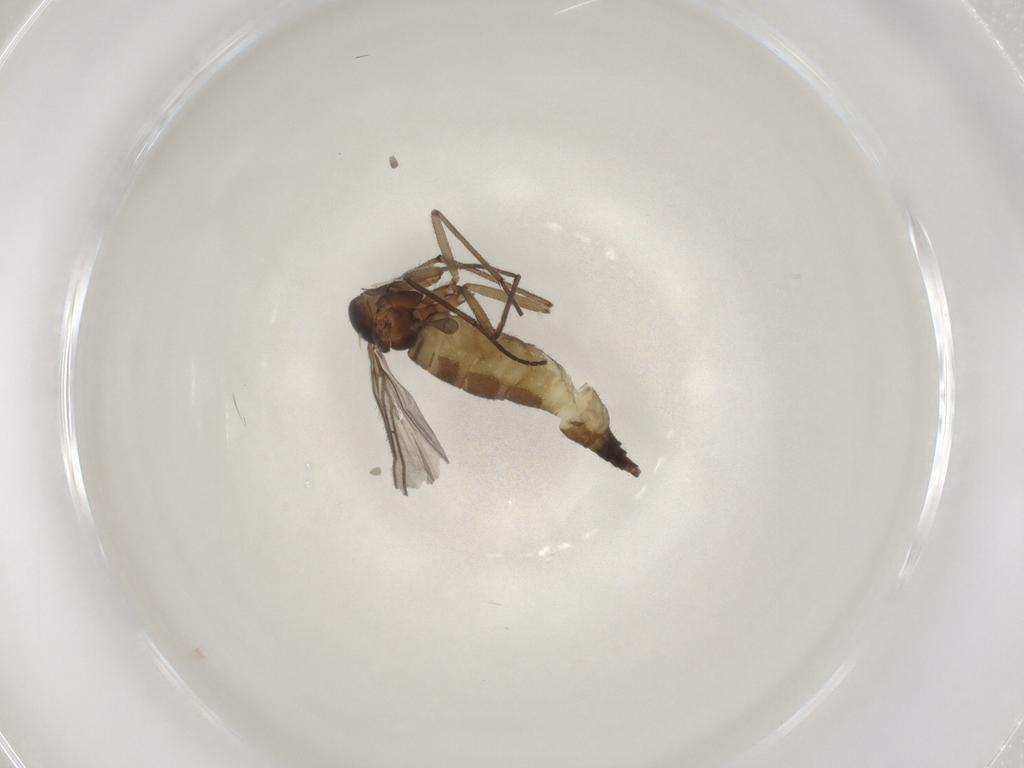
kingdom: Animalia
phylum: Arthropoda
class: Insecta
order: Diptera
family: Sciaridae
